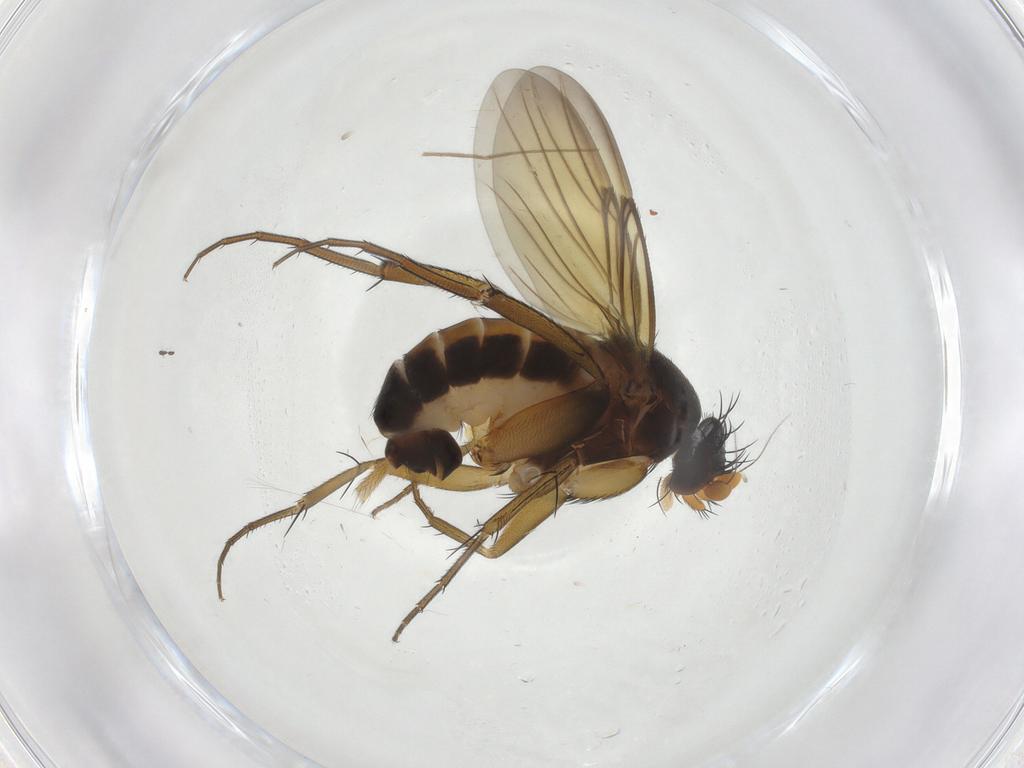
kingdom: Animalia
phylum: Arthropoda
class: Insecta
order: Diptera
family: Phoridae
